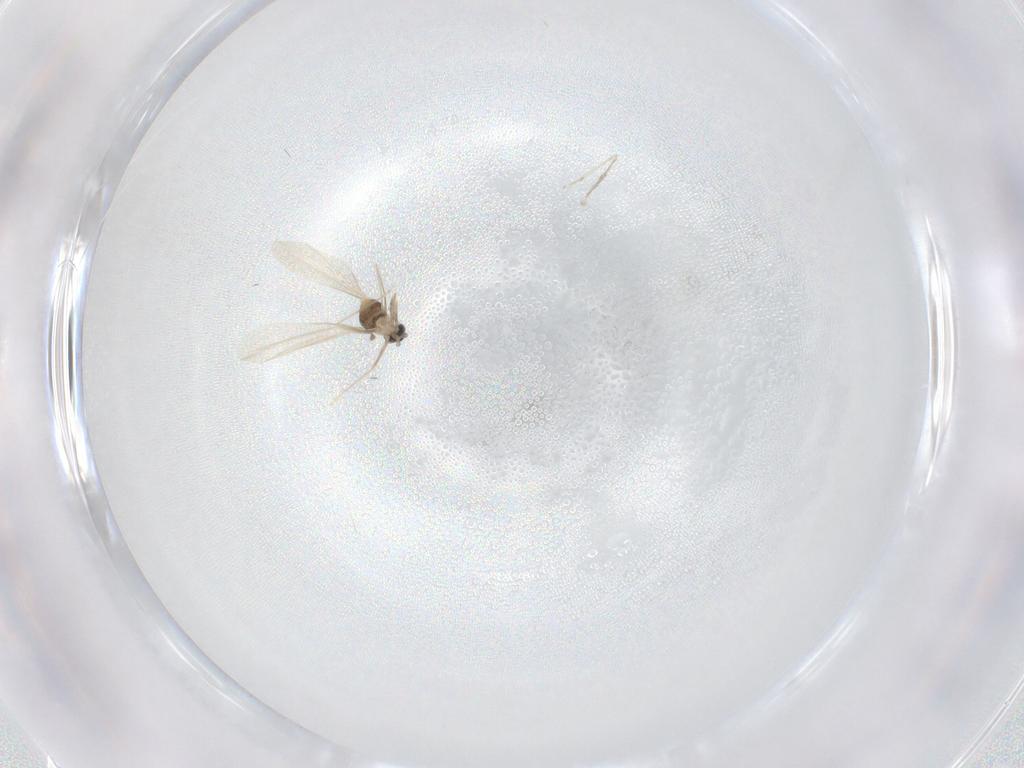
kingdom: Animalia
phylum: Arthropoda
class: Insecta
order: Diptera
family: Cecidomyiidae
